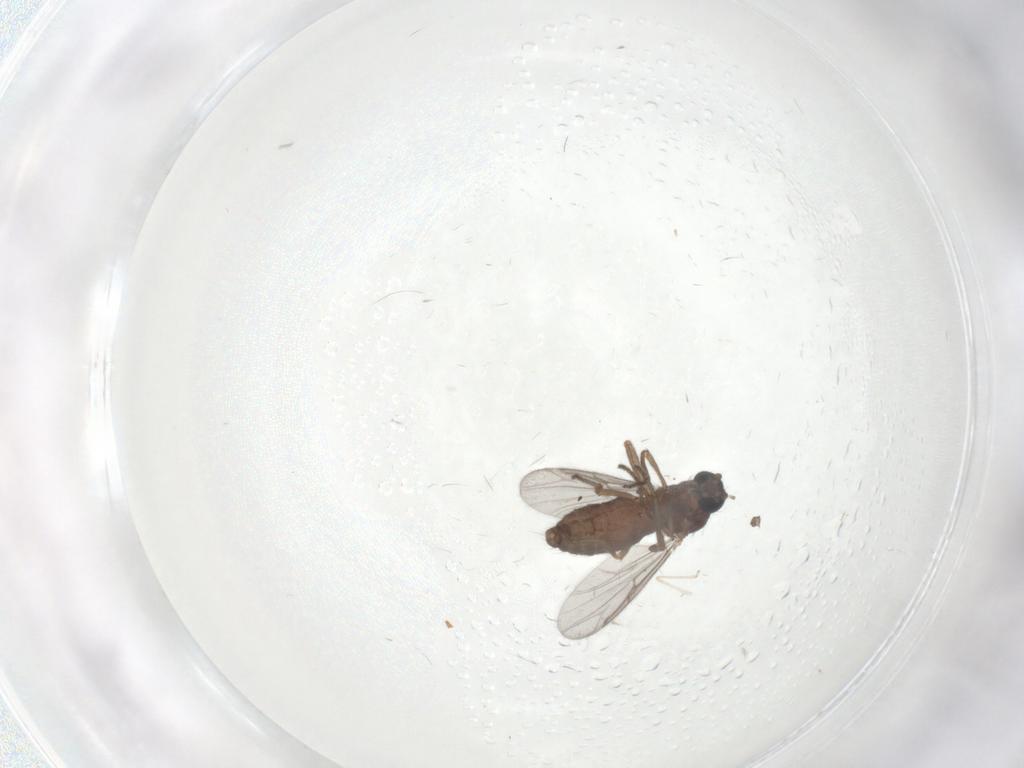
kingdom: Animalia
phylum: Arthropoda
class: Insecta
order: Diptera
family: Ceratopogonidae
